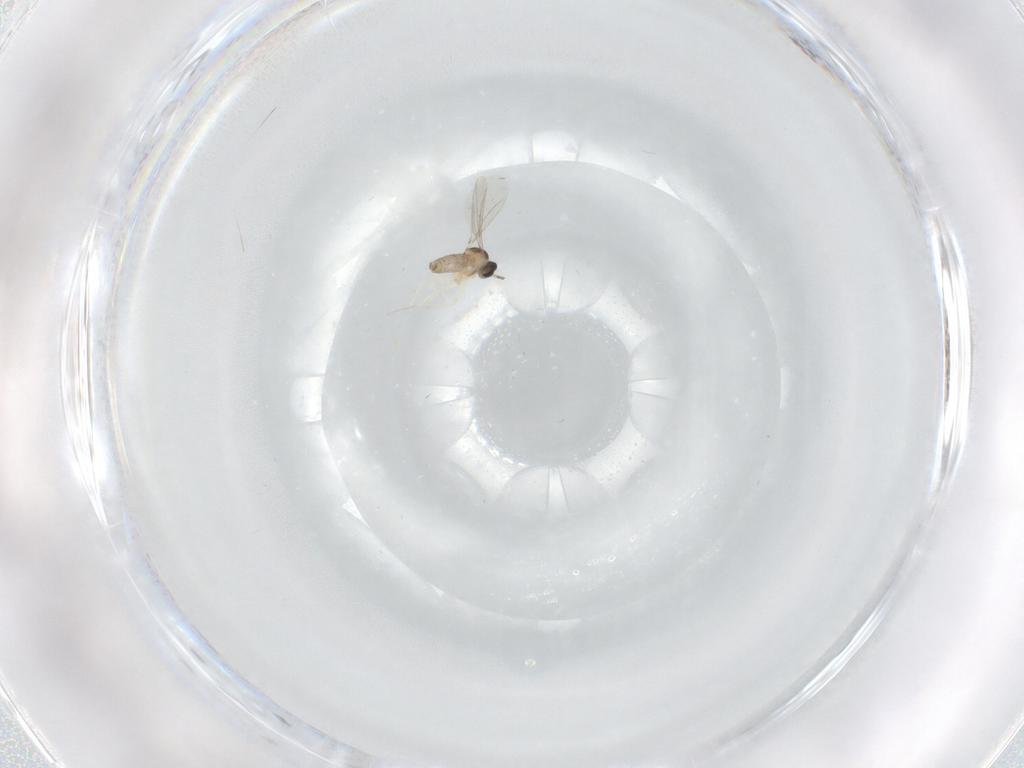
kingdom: Animalia
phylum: Arthropoda
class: Insecta
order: Diptera
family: Cecidomyiidae
